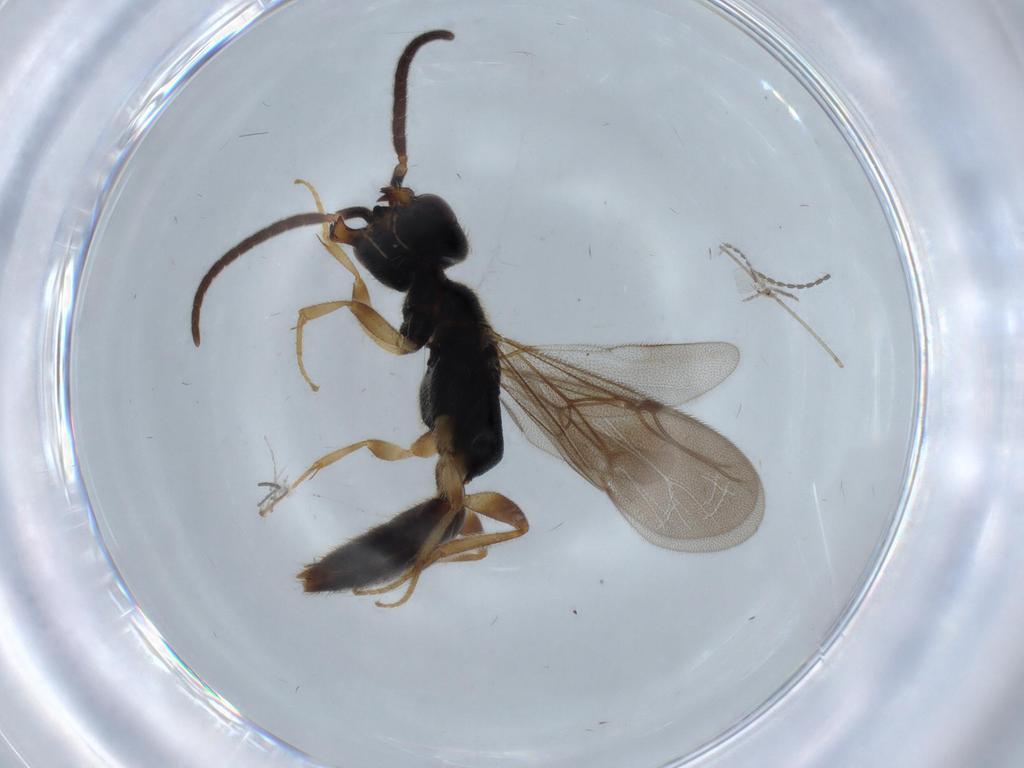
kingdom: Animalia
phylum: Arthropoda
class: Insecta
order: Hymenoptera
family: Bethylidae
